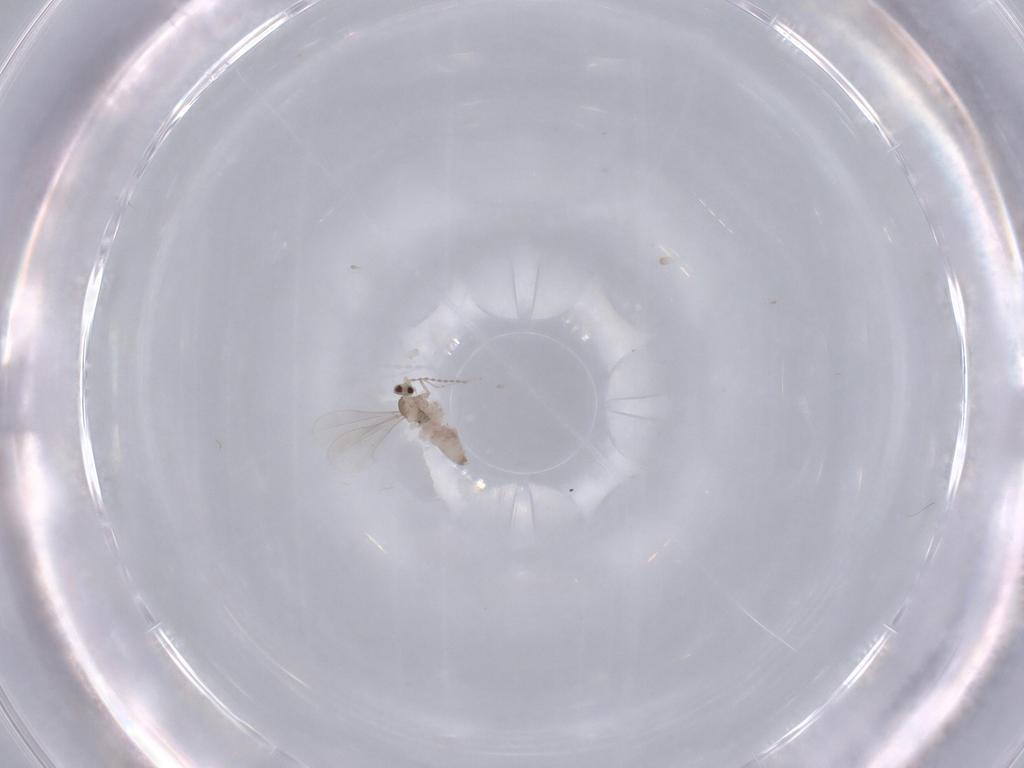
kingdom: Animalia
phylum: Arthropoda
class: Insecta
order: Diptera
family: Cecidomyiidae
